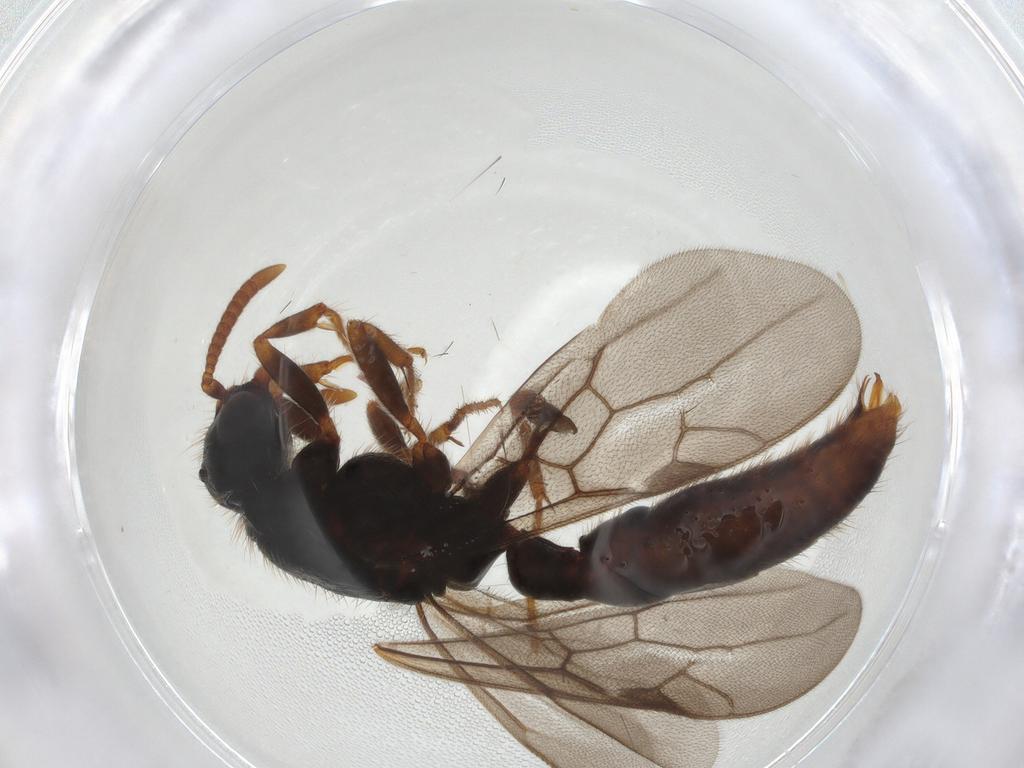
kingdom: Animalia
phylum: Arthropoda
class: Insecta
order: Hymenoptera
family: Formicidae
